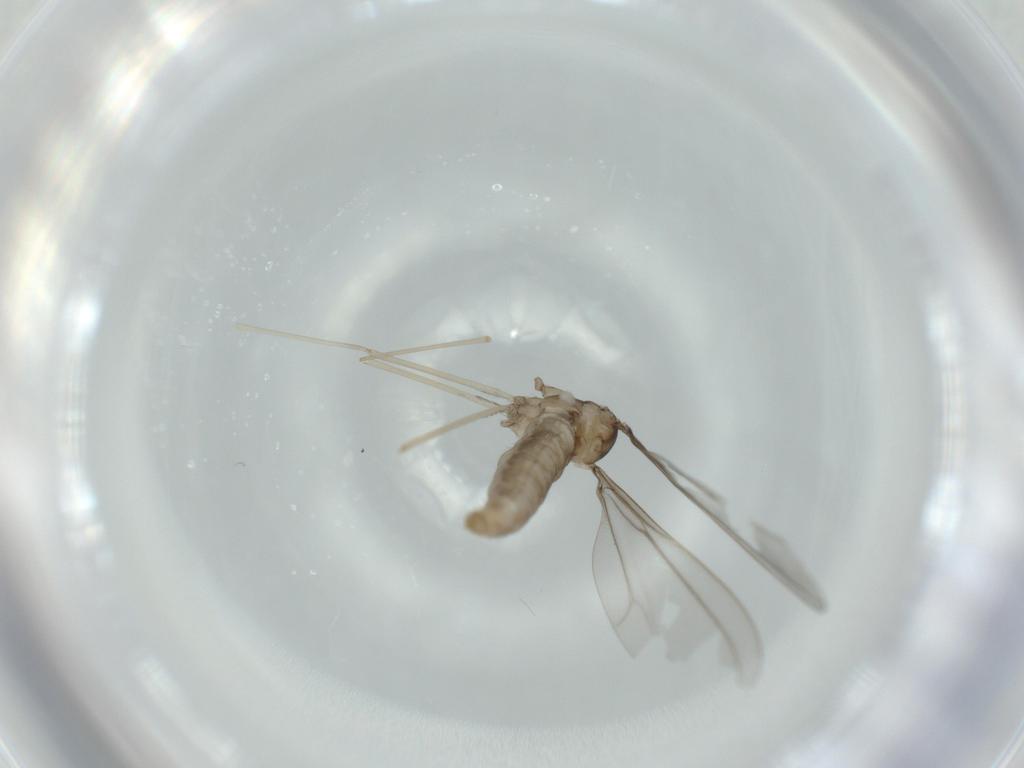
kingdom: Animalia
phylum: Arthropoda
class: Insecta
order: Diptera
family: Cecidomyiidae
